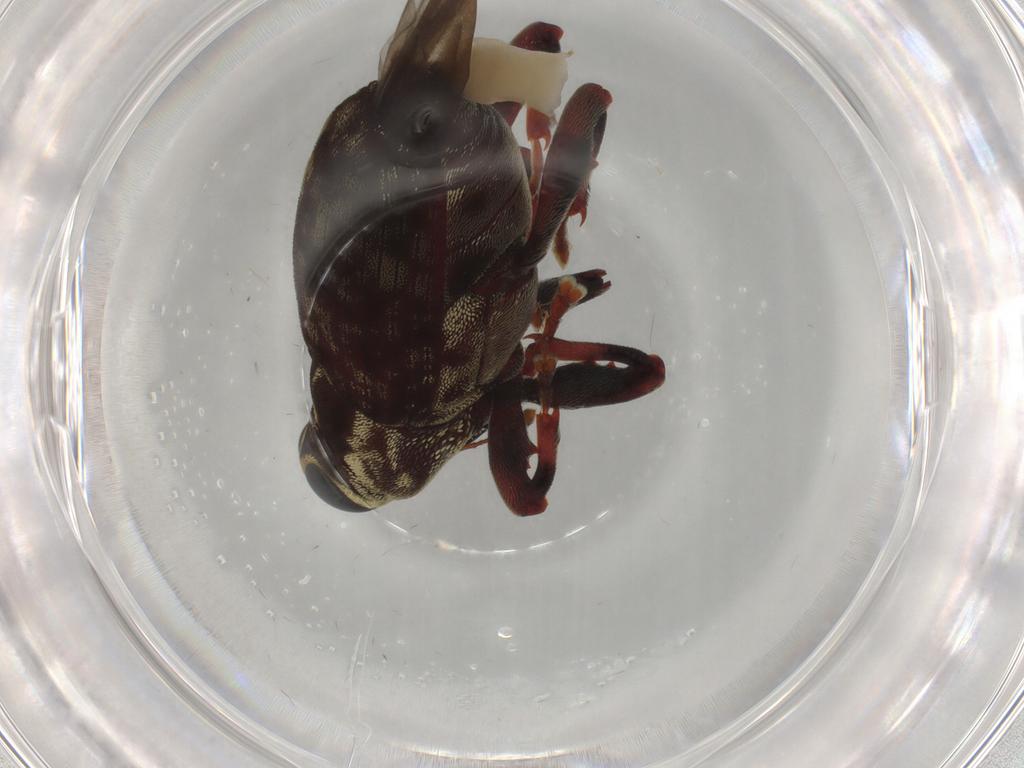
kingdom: Animalia
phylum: Arthropoda
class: Insecta
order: Coleoptera
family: Curculionidae
